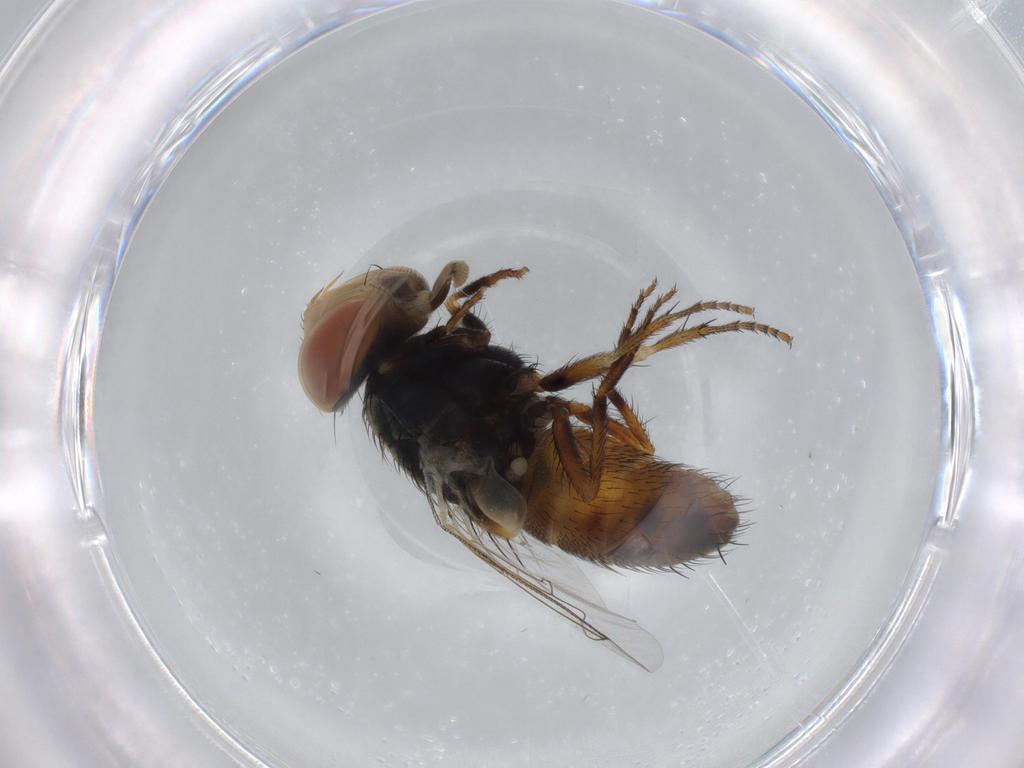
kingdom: Animalia
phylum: Arthropoda
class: Insecta
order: Diptera
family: Sarcophagidae
